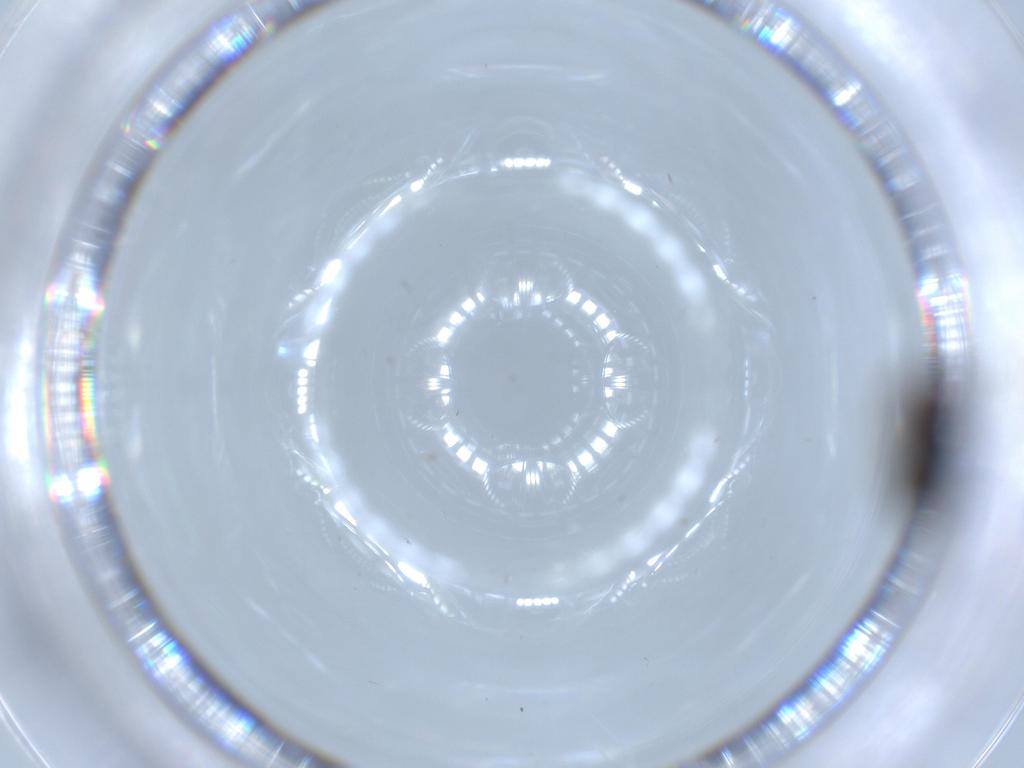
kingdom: Animalia
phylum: Arthropoda
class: Insecta
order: Diptera
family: Drosophilidae
